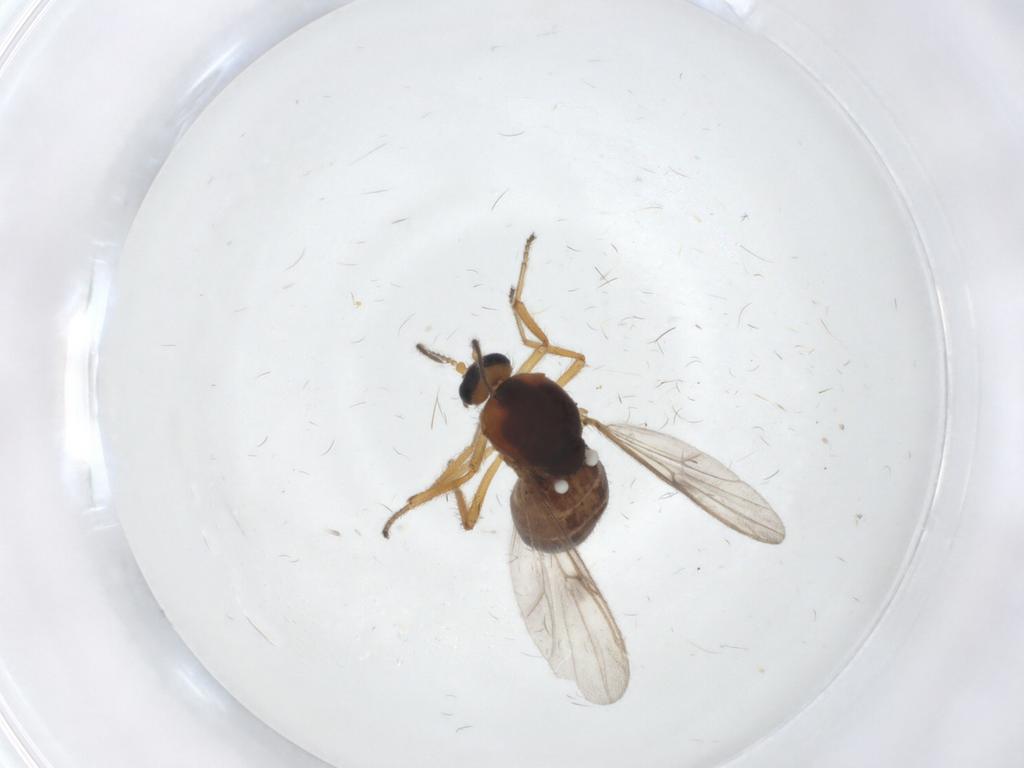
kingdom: Animalia
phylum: Arthropoda
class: Insecta
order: Diptera
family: Ceratopogonidae
